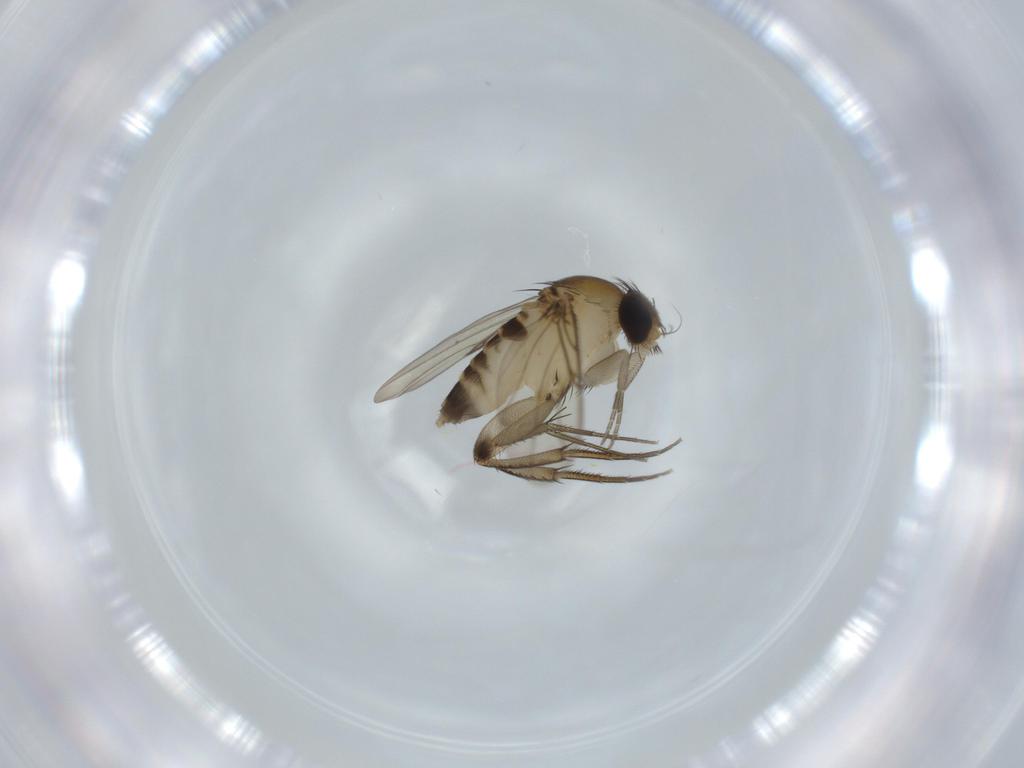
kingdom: Animalia
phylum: Arthropoda
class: Insecta
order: Diptera
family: Phoridae
